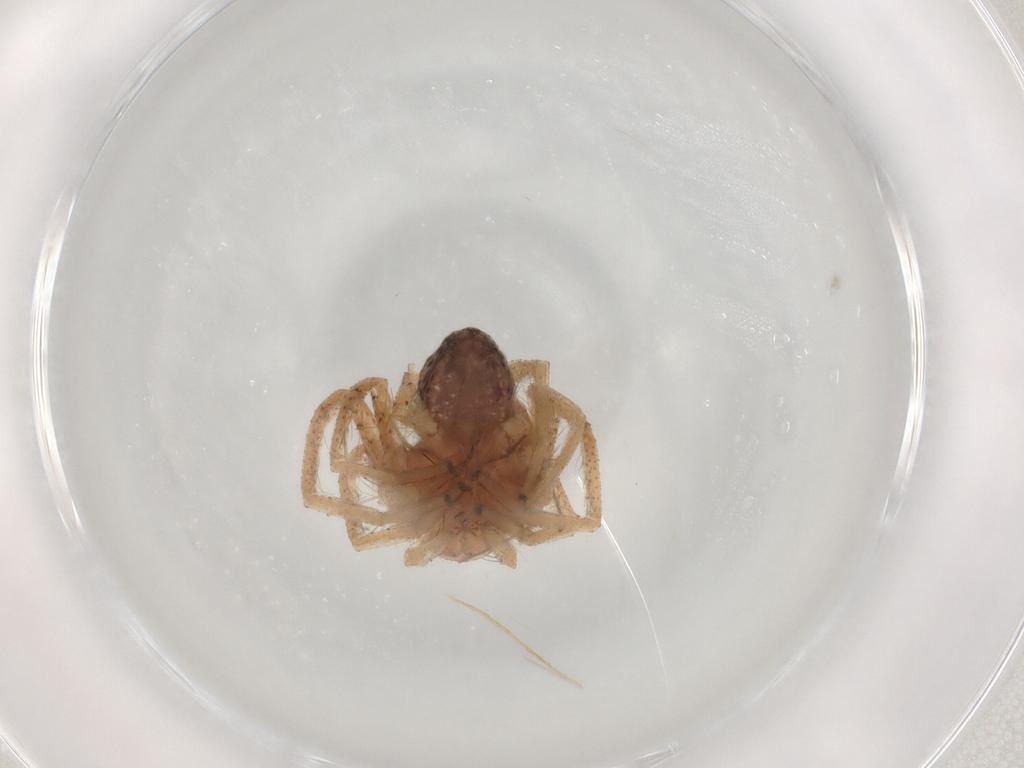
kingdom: Animalia
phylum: Arthropoda
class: Arachnida
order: Araneae
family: Philodromidae
